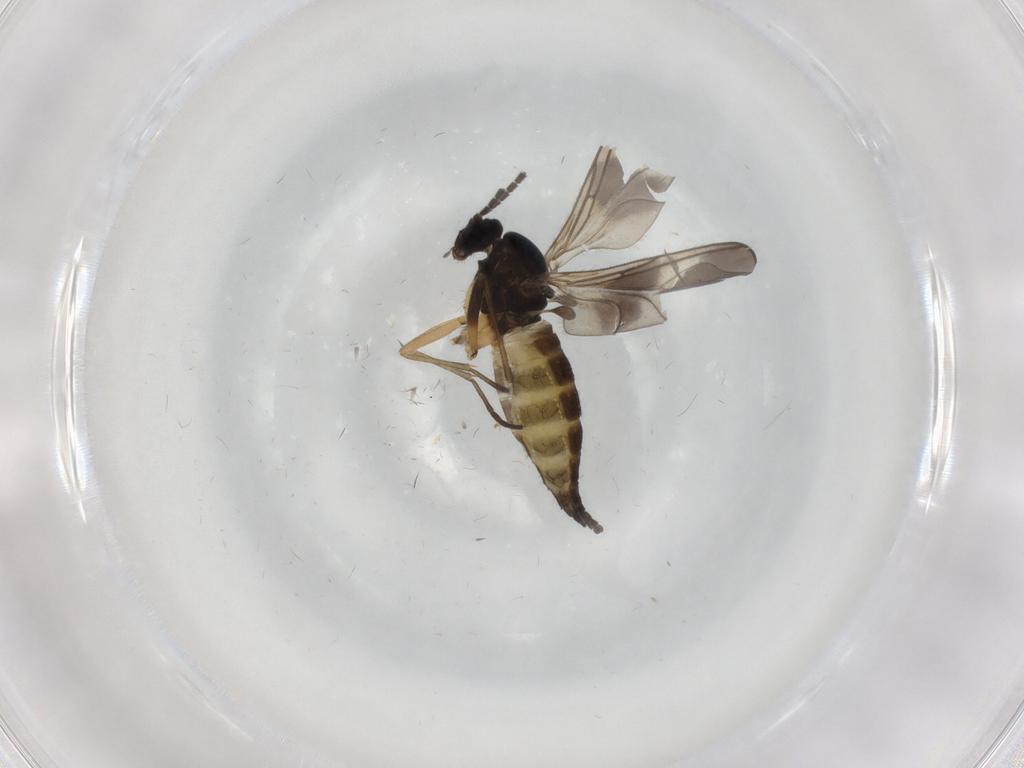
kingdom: Animalia
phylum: Arthropoda
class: Insecta
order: Diptera
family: Sciaridae
